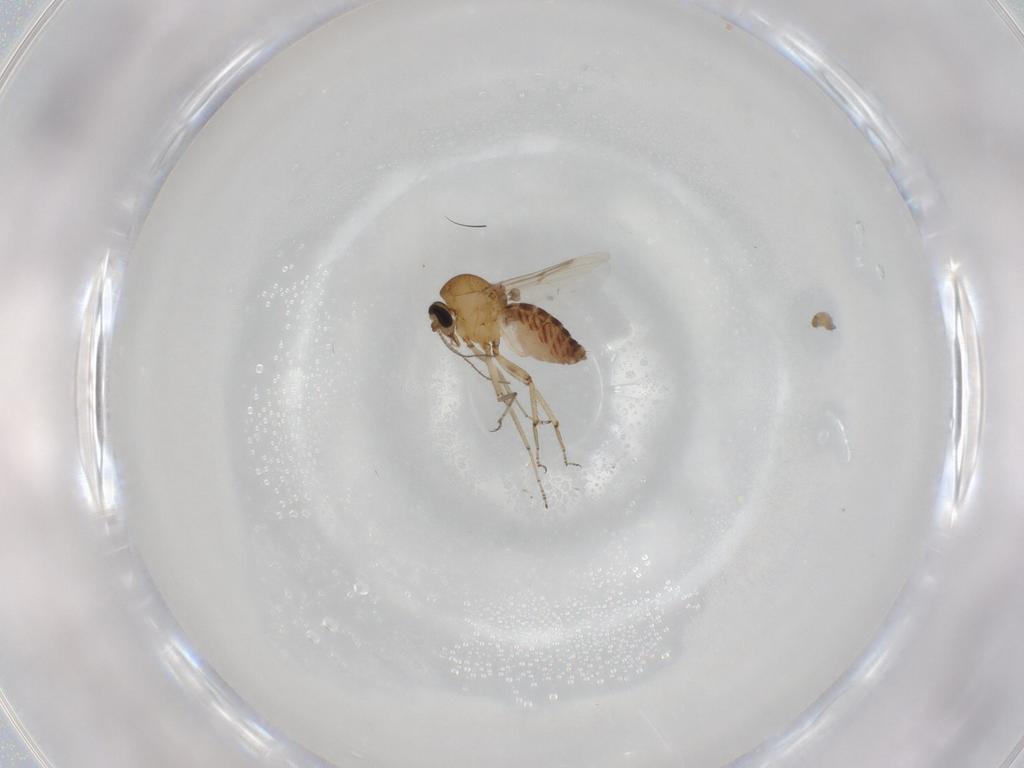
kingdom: Animalia
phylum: Arthropoda
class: Insecta
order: Diptera
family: Ceratopogonidae
